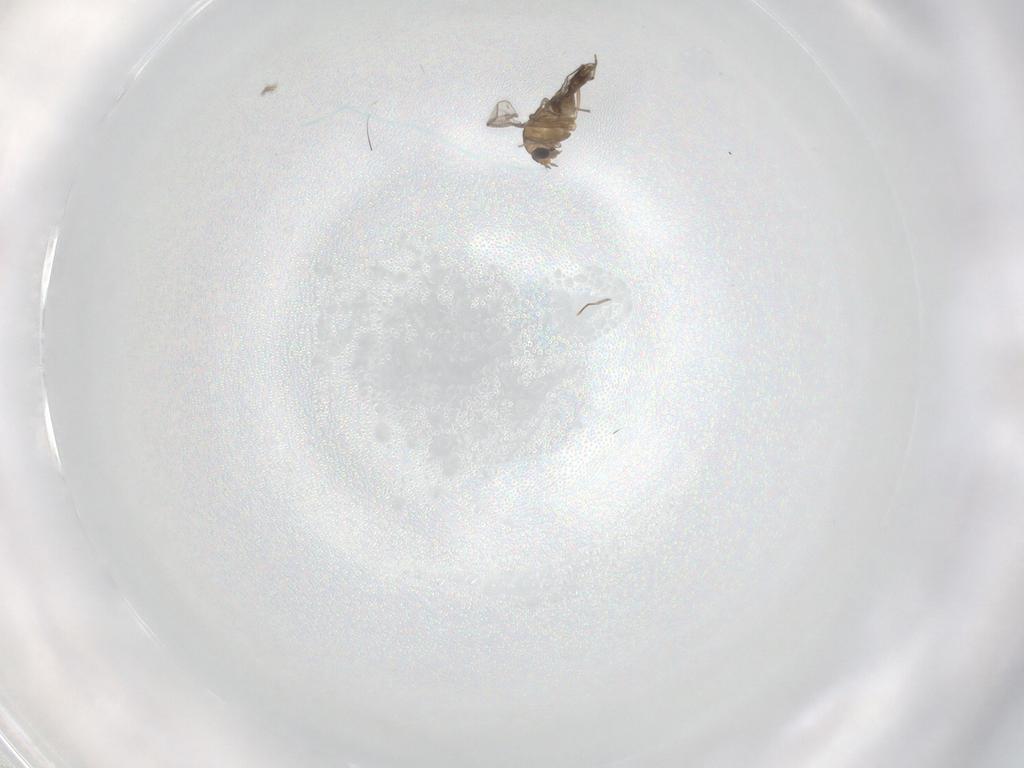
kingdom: Animalia
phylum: Arthropoda
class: Insecta
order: Diptera
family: Chironomidae
